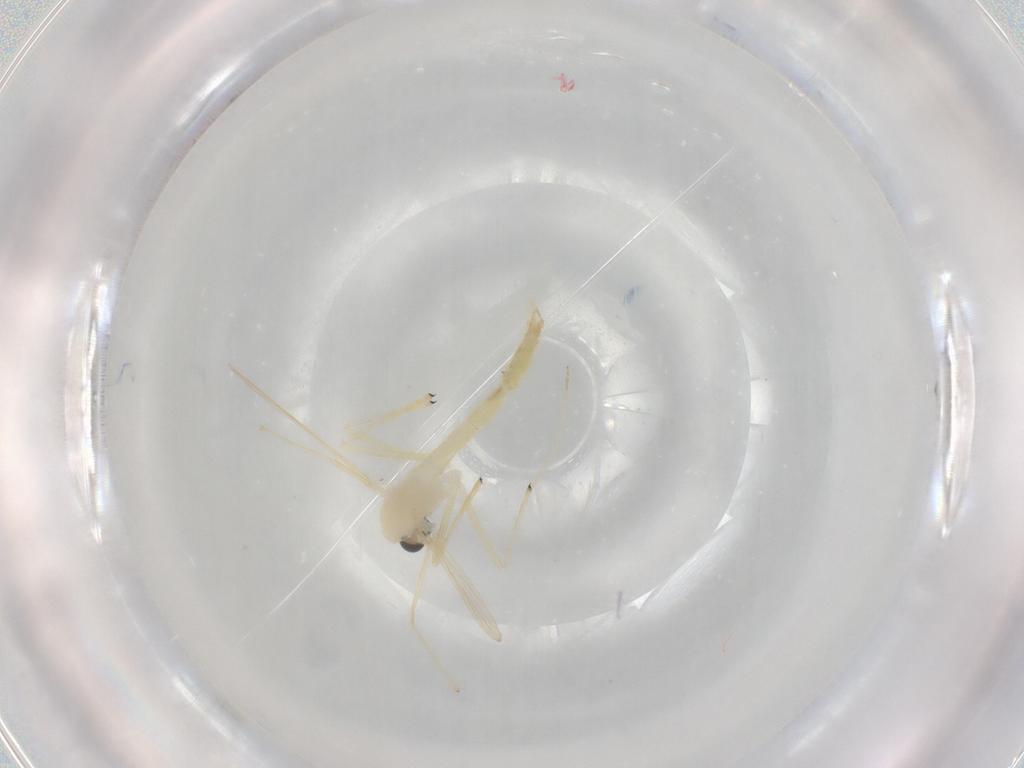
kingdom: Animalia
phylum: Arthropoda
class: Insecta
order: Diptera
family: Chironomidae
